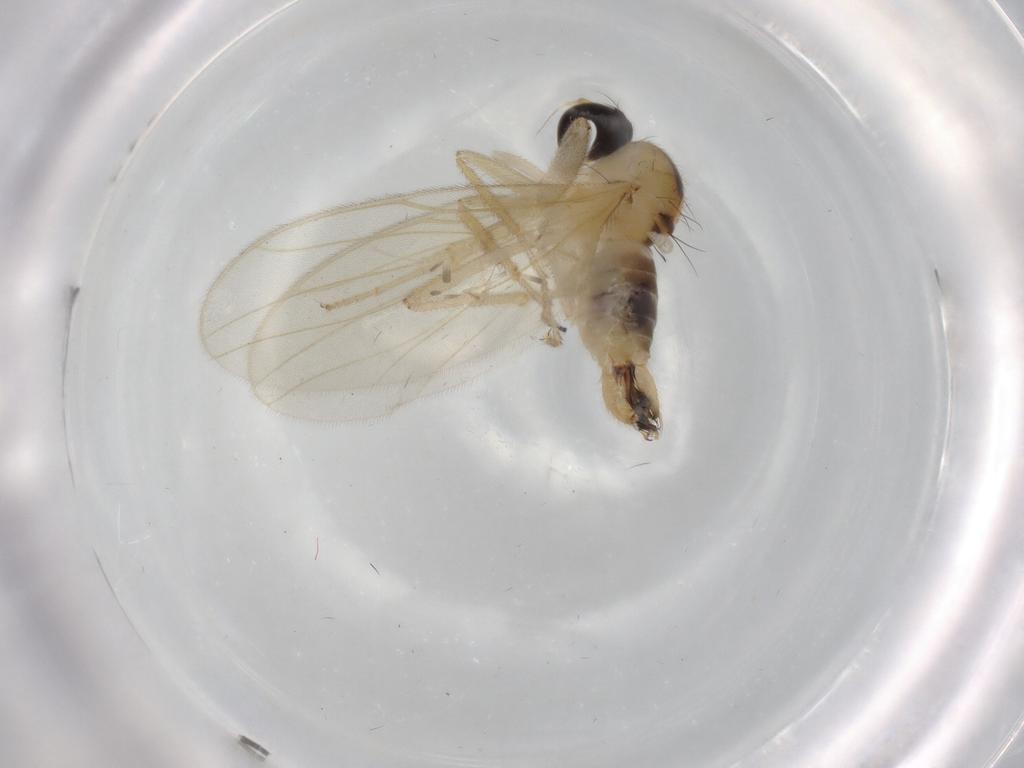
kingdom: Animalia
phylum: Arthropoda
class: Insecta
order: Diptera
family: Hybotidae
